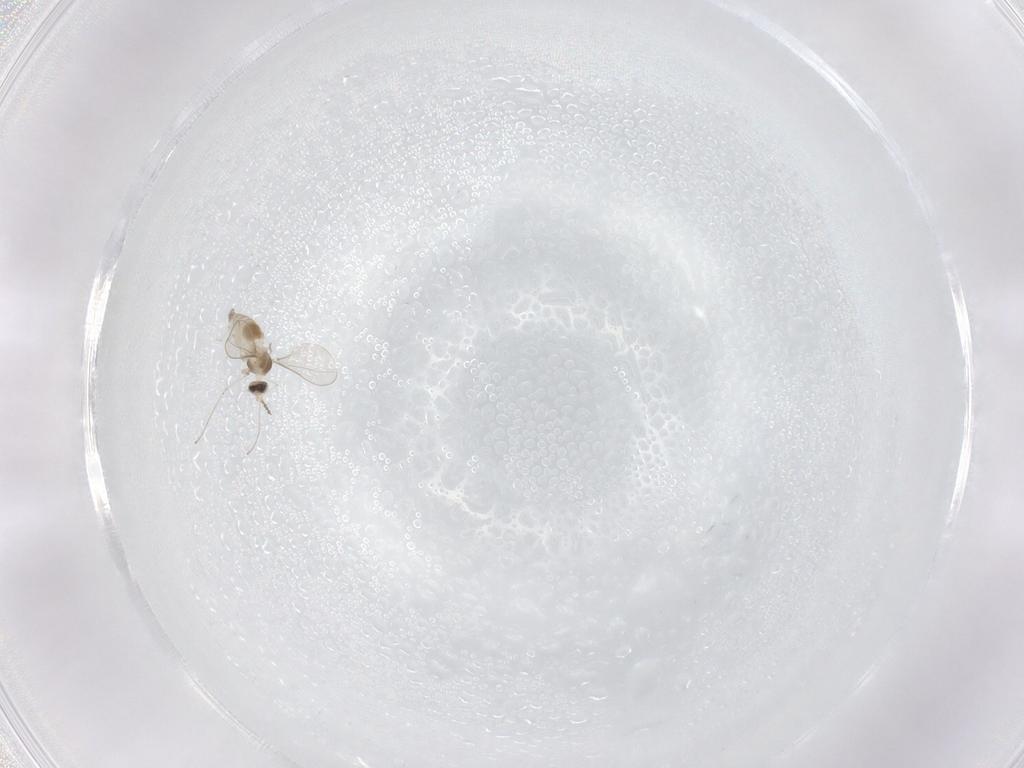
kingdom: Animalia
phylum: Arthropoda
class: Insecta
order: Diptera
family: Cecidomyiidae
